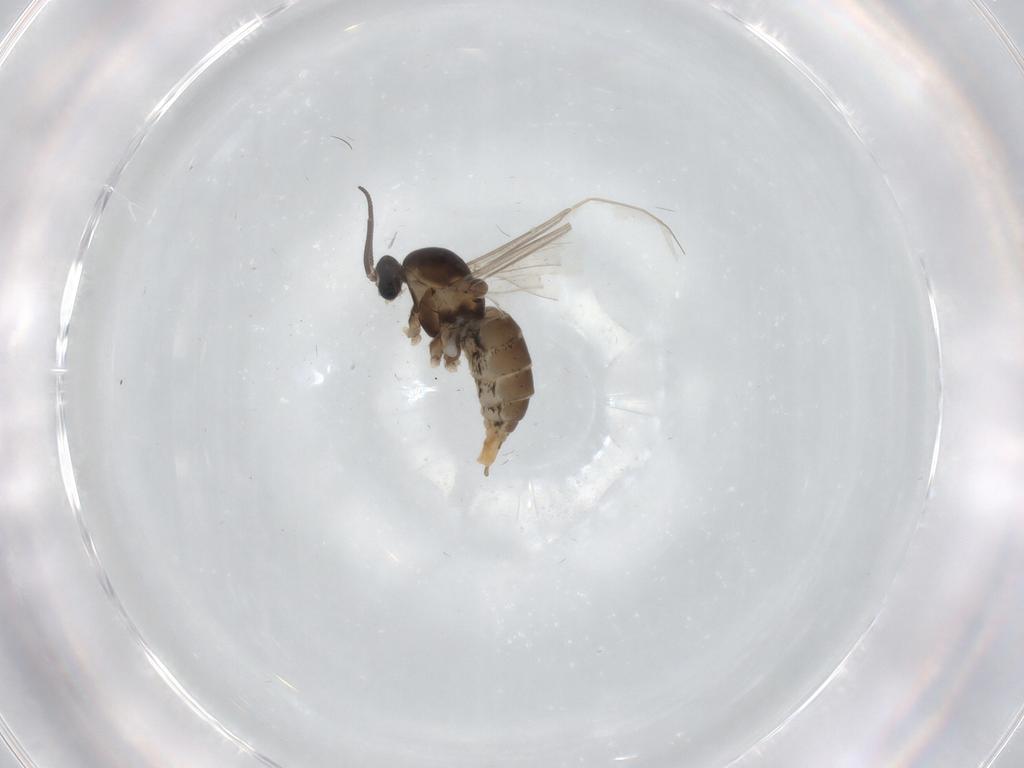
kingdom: Animalia
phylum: Arthropoda
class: Insecta
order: Diptera
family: Cecidomyiidae
